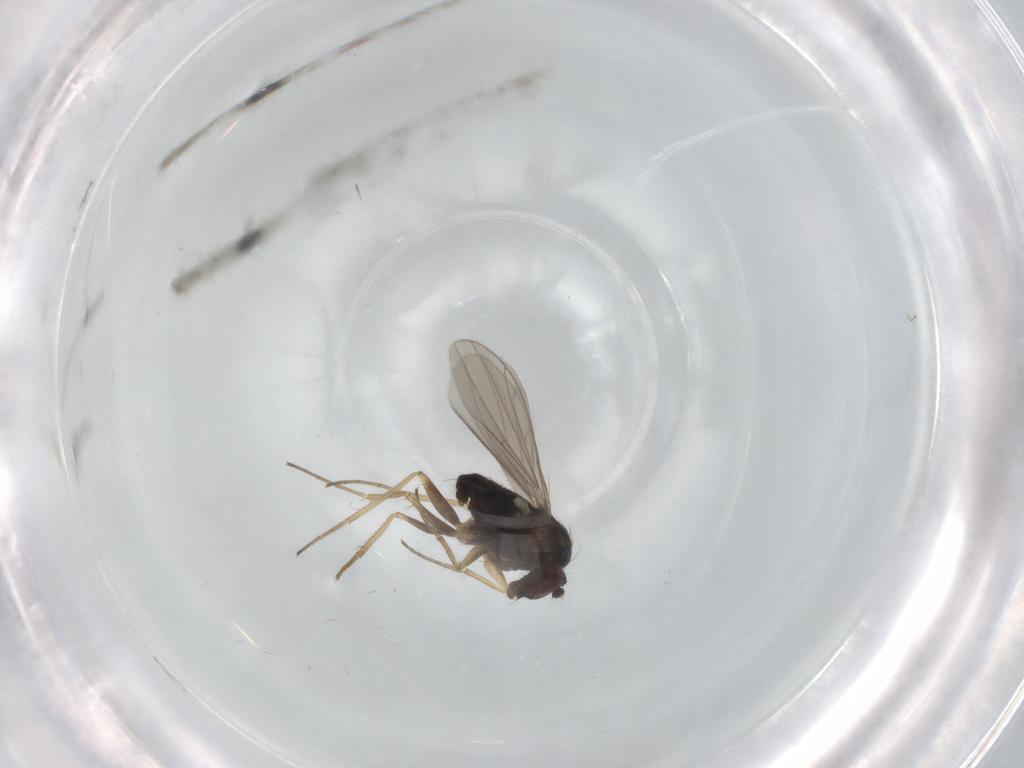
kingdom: Animalia
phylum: Arthropoda
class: Insecta
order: Diptera
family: Dolichopodidae
